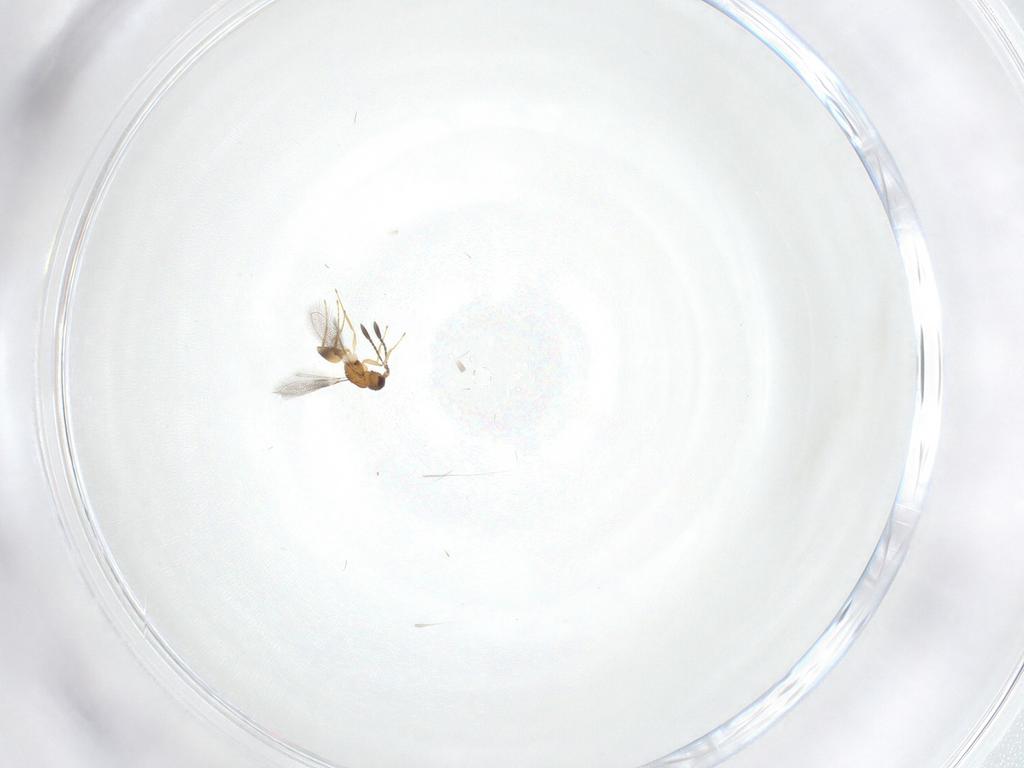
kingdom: Animalia
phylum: Arthropoda
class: Insecta
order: Hymenoptera
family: Mymaridae
